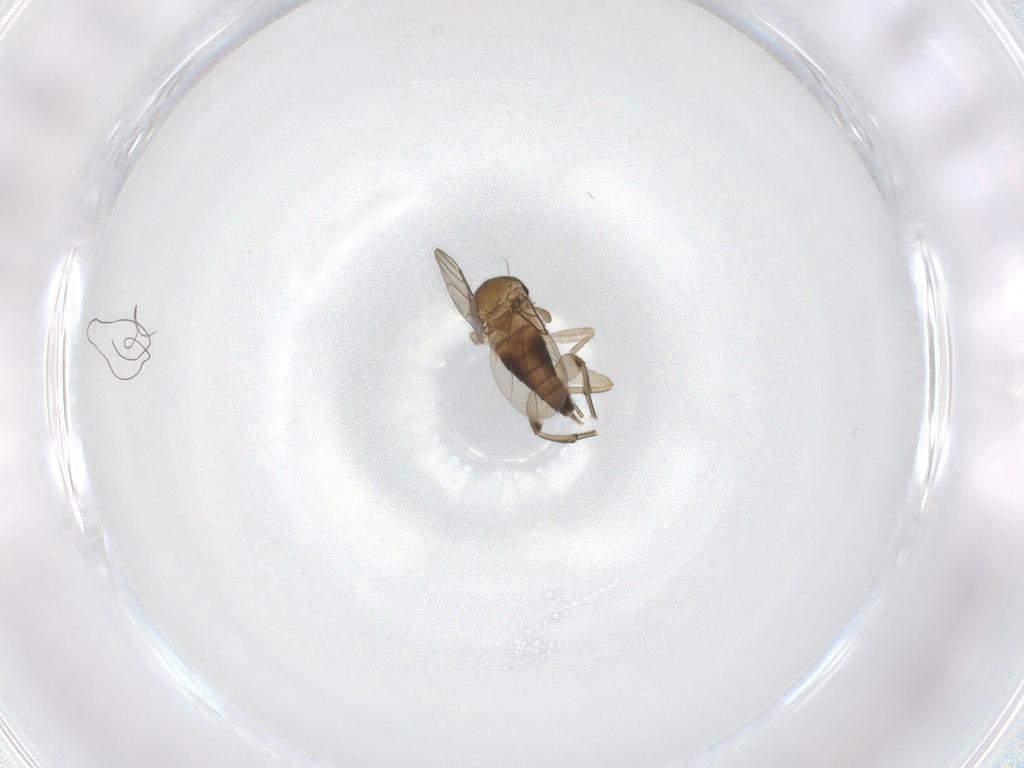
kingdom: Animalia
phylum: Arthropoda
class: Insecta
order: Diptera
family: Phoridae
